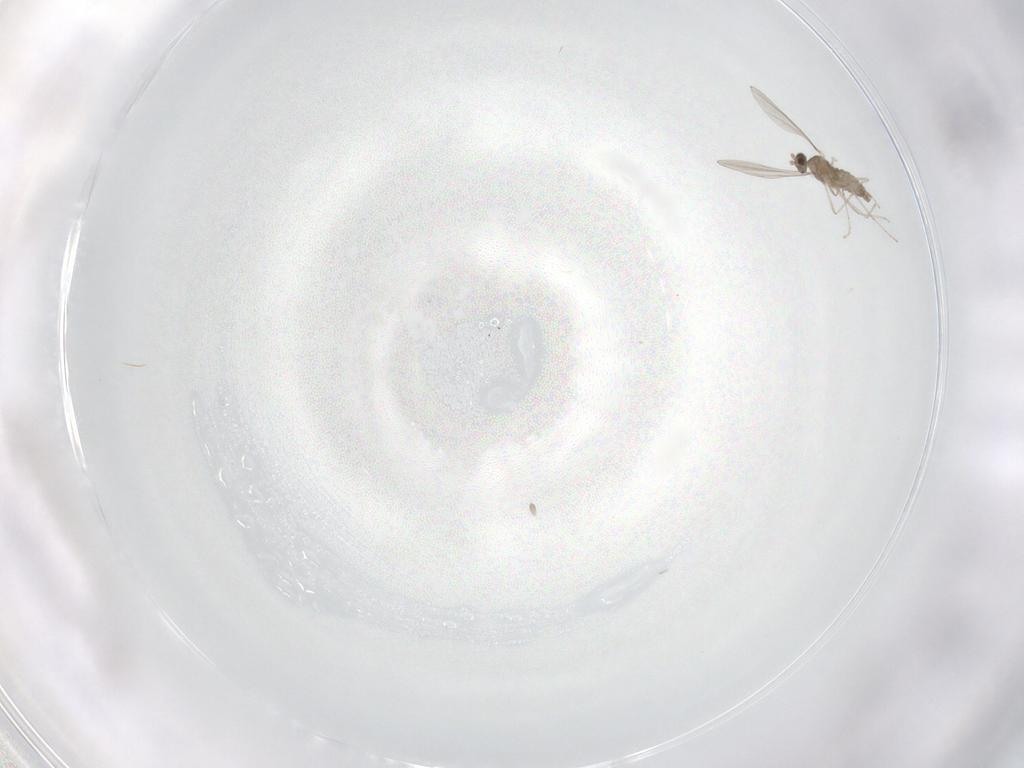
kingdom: Animalia
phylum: Arthropoda
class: Insecta
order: Diptera
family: Cecidomyiidae
